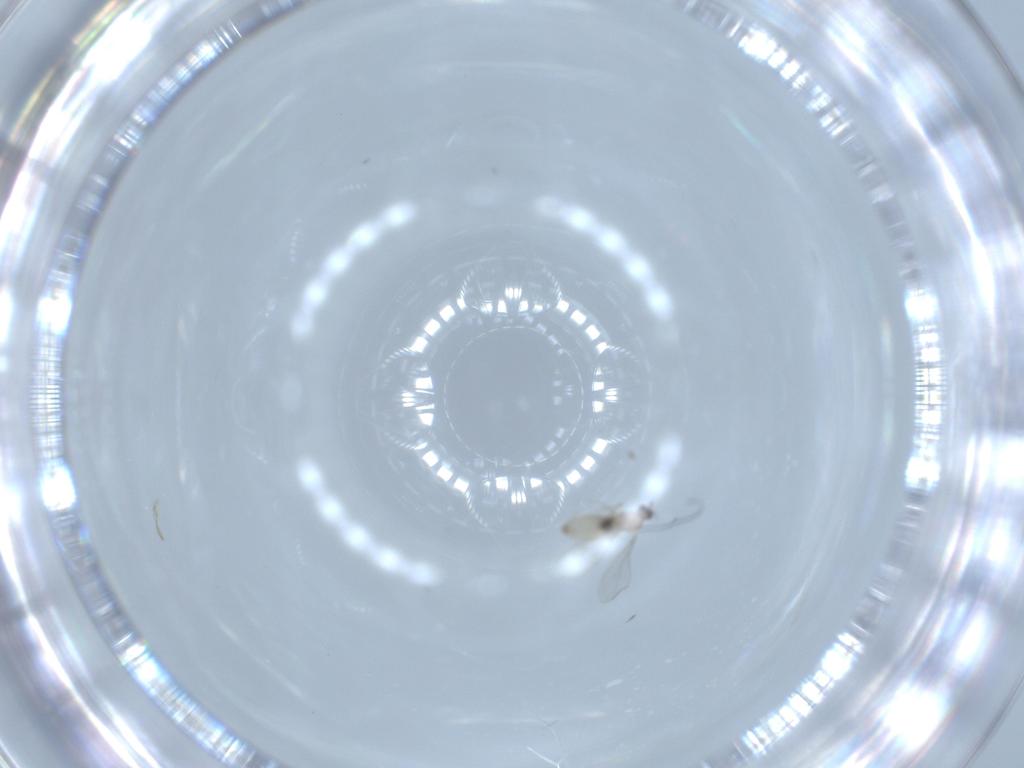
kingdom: Animalia
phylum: Arthropoda
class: Insecta
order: Diptera
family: Cecidomyiidae
